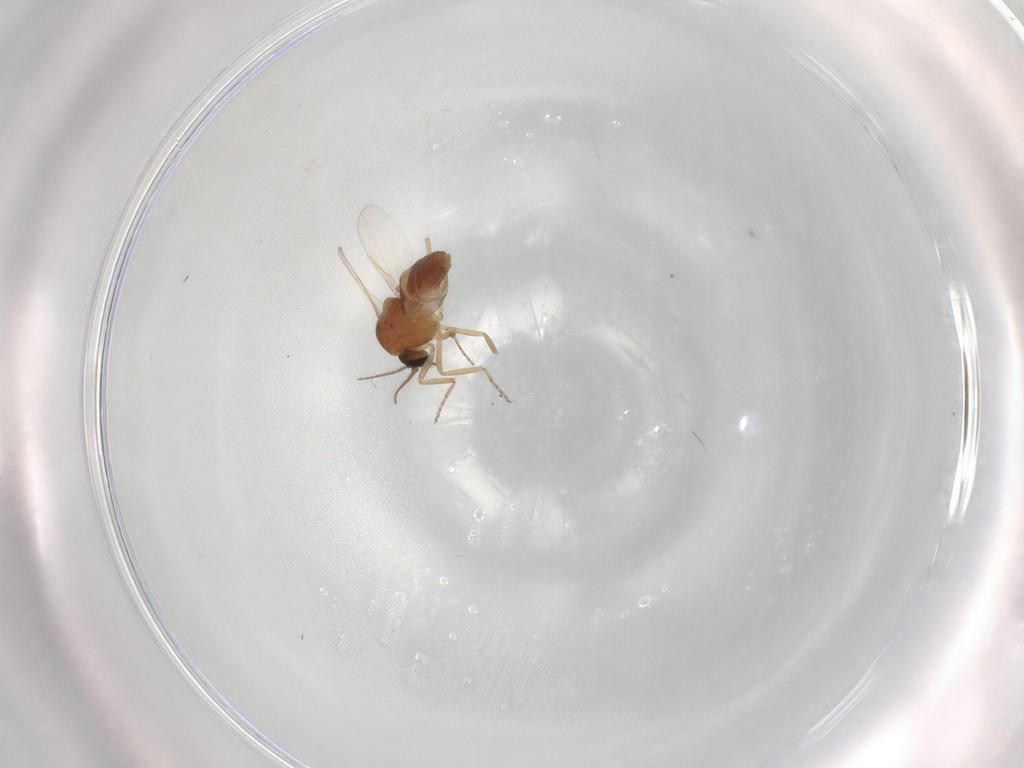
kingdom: Animalia
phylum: Arthropoda
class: Insecta
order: Diptera
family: Ceratopogonidae
